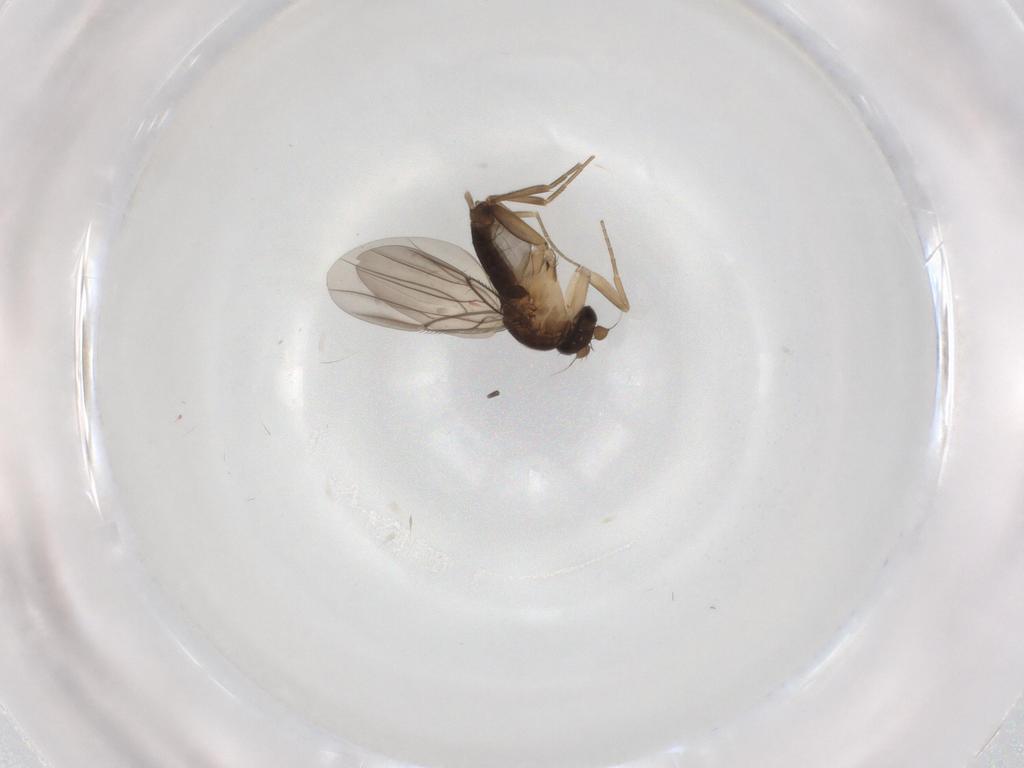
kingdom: Animalia
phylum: Arthropoda
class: Insecta
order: Diptera
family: Phoridae
